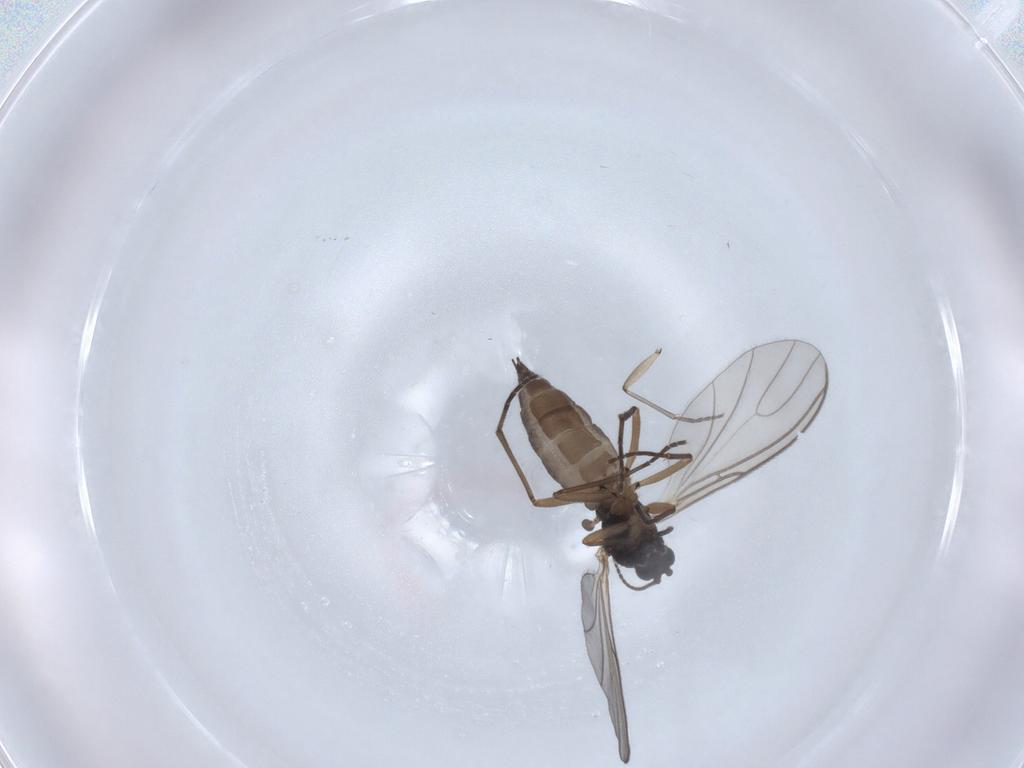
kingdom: Animalia
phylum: Arthropoda
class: Insecta
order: Diptera
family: Sciaridae
